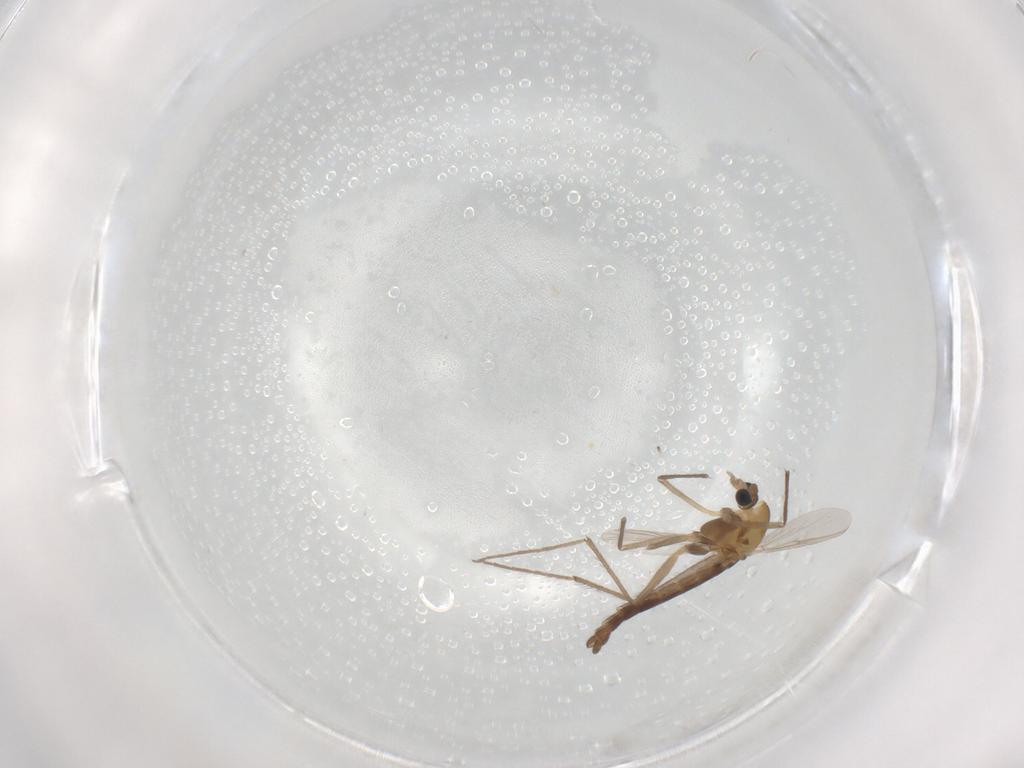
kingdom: Animalia
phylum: Arthropoda
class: Insecta
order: Diptera
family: Chironomidae
